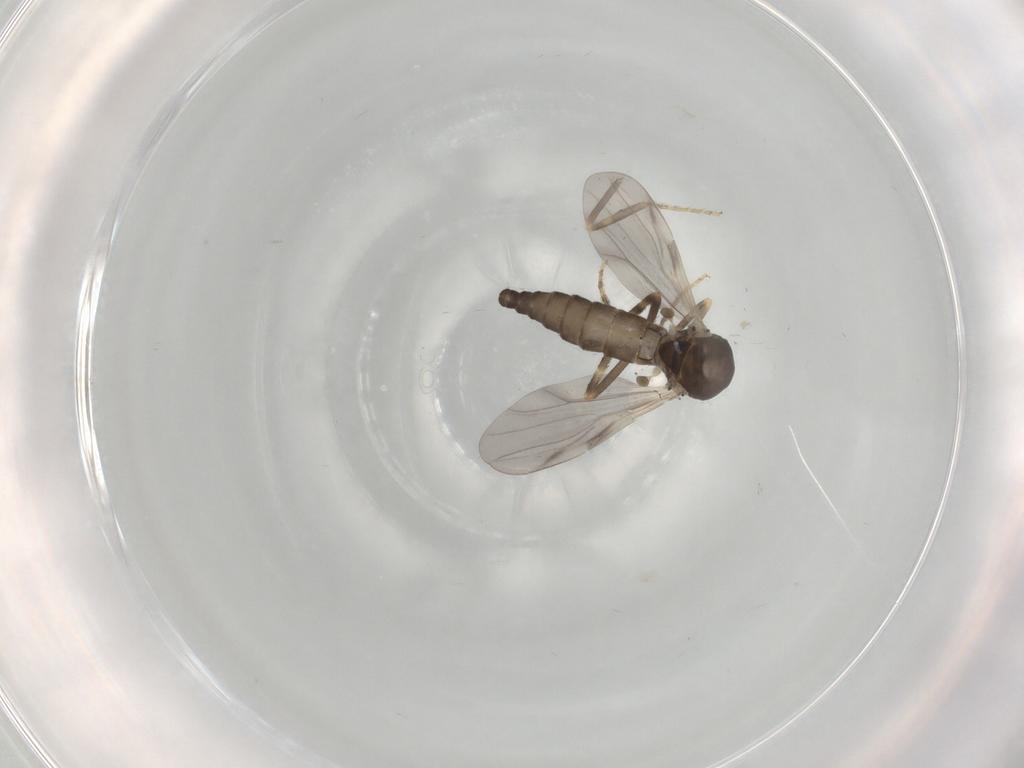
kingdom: Animalia
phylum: Arthropoda
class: Insecta
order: Diptera
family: Ceratopogonidae
